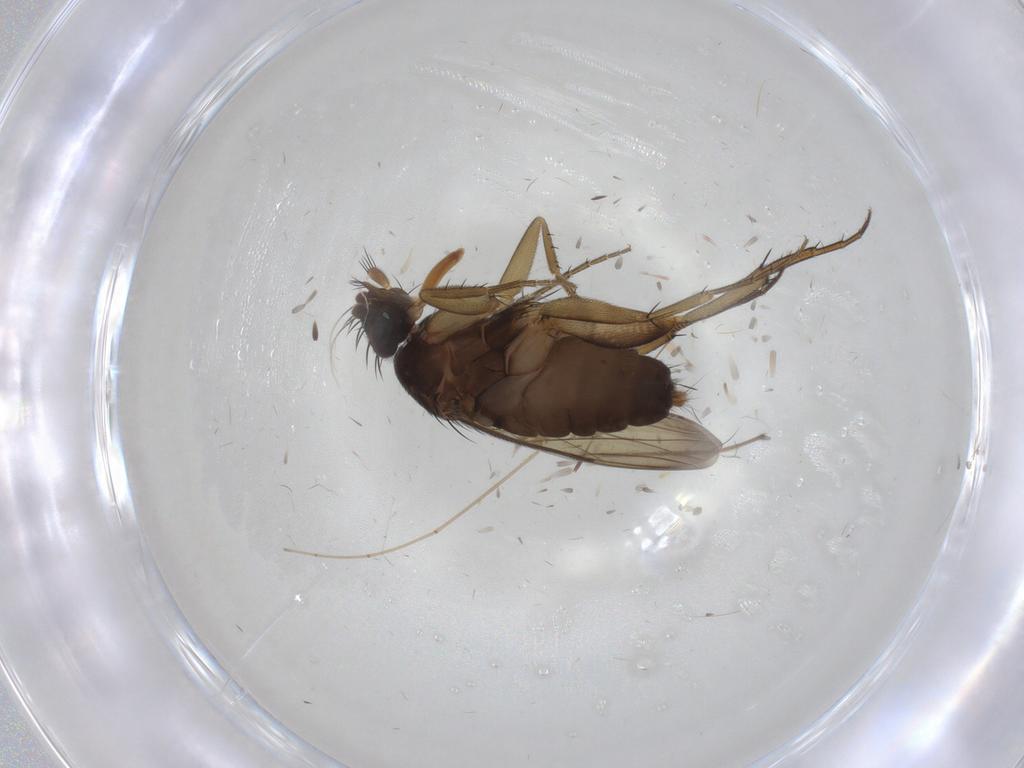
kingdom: Animalia
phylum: Arthropoda
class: Insecta
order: Diptera
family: Phoridae
